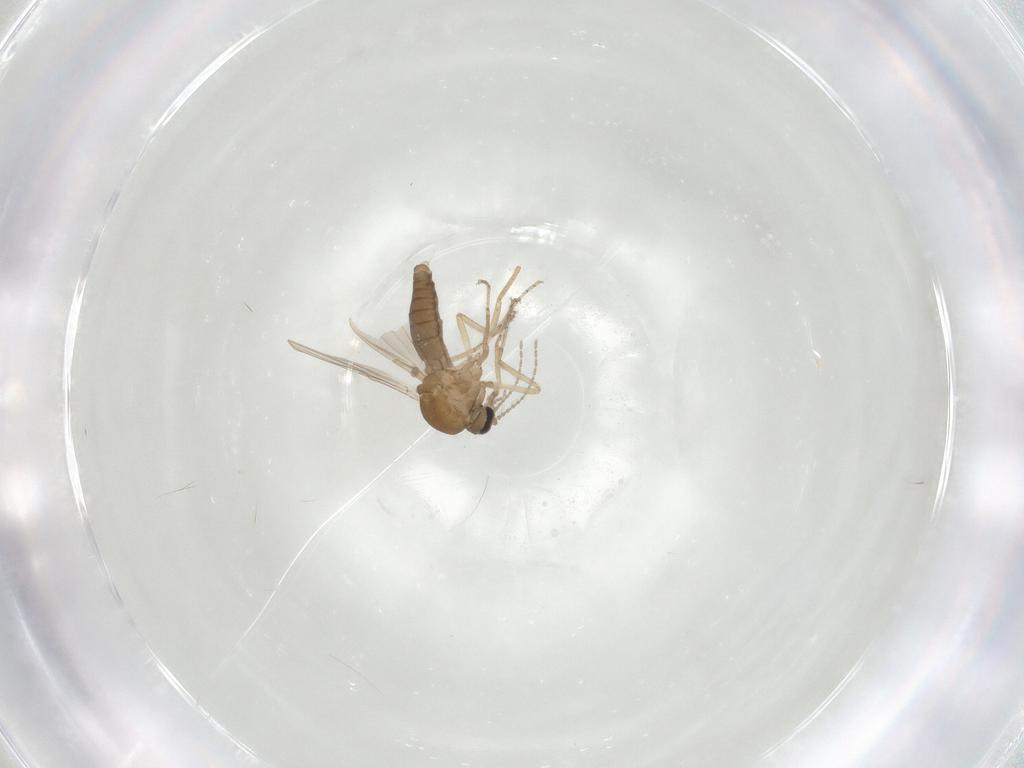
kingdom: Animalia
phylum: Arthropoda
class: Insecta
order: Diptera
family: Ceratopogonidae
